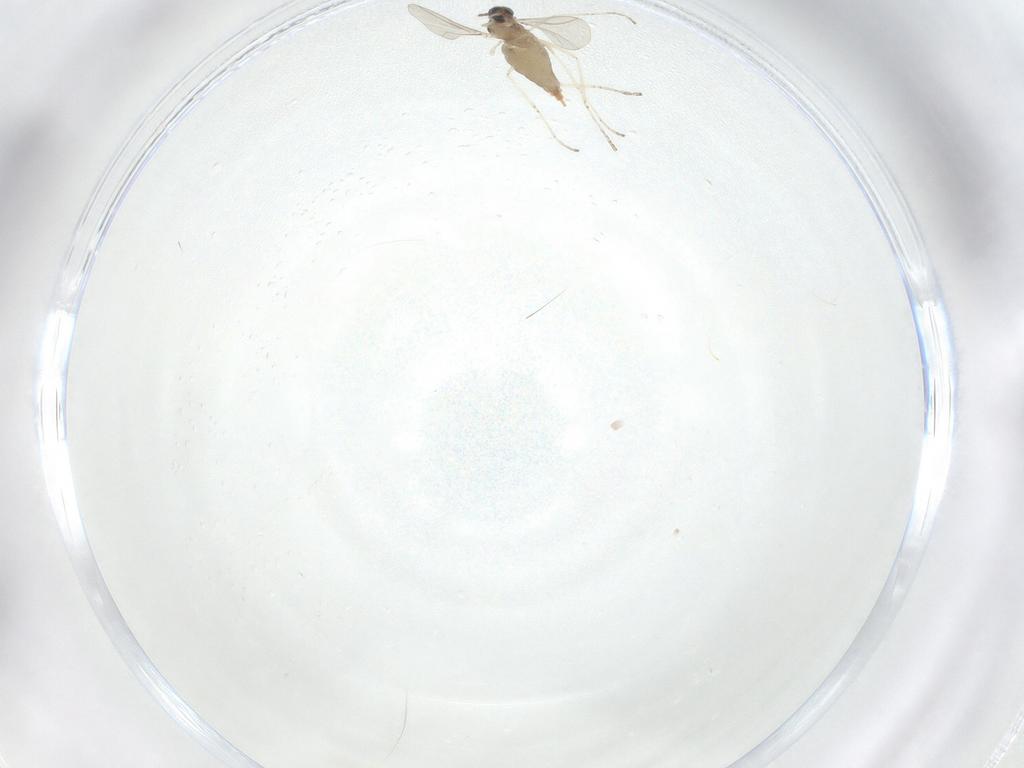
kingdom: Animalia
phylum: Arthropoda
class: Insecta
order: Diptera
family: Cecidomyiidae
